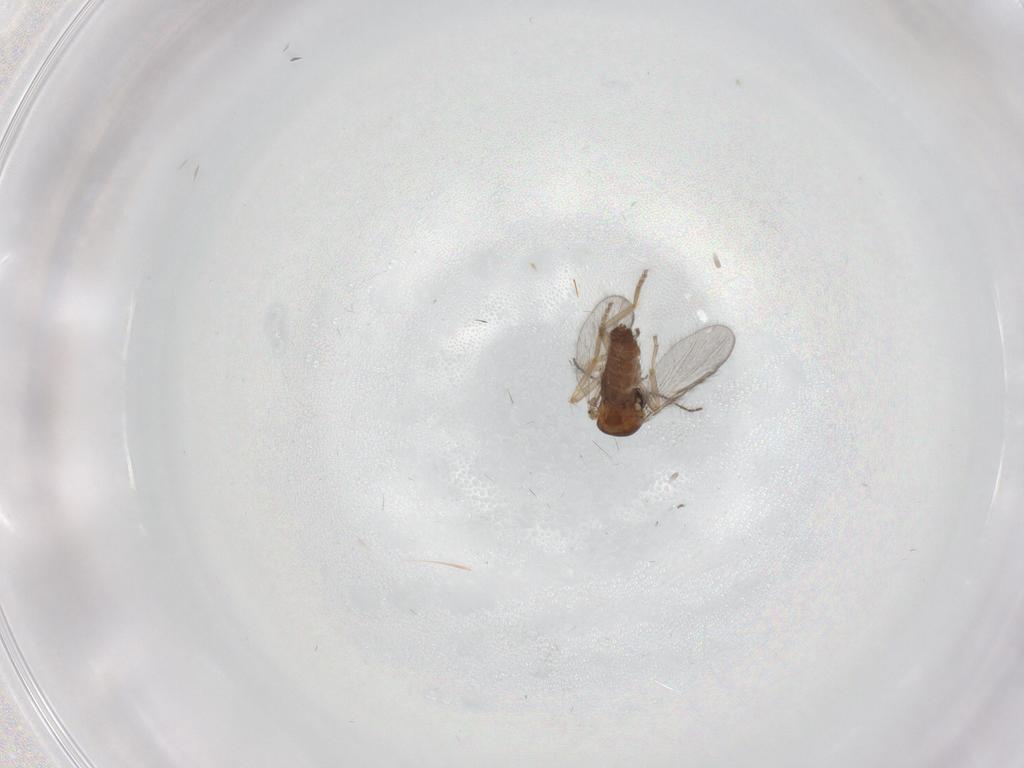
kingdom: Animalia
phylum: Arthropoda
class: Insecta
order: Diptera
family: Ceratopogonidae
